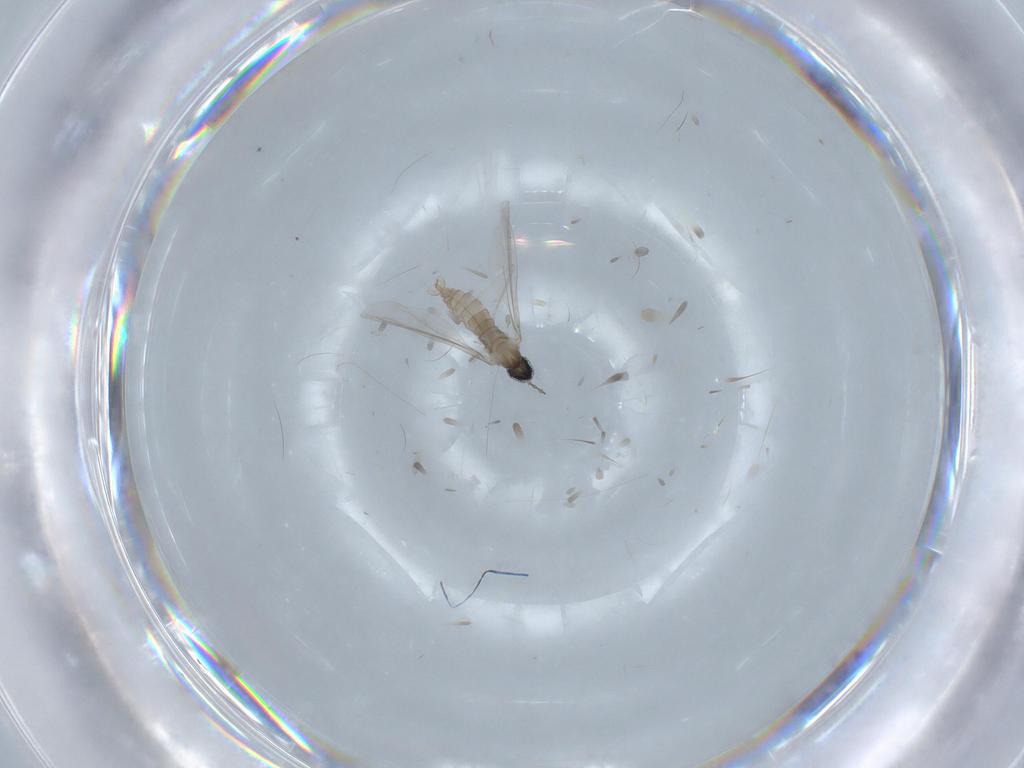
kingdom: Animalia
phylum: Arthropoda
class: Insecta
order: Diptera
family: Cecidomyiidae
